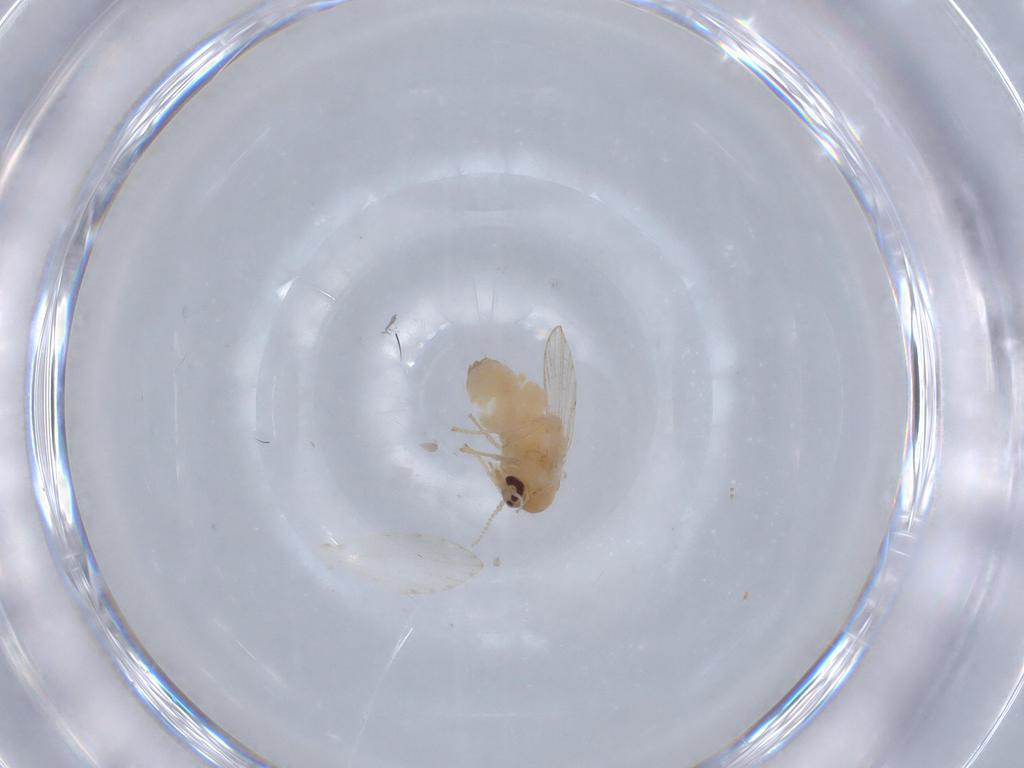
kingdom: Animalia
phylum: Arthropoda
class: Insecta
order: Diptera
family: Psychodidae
